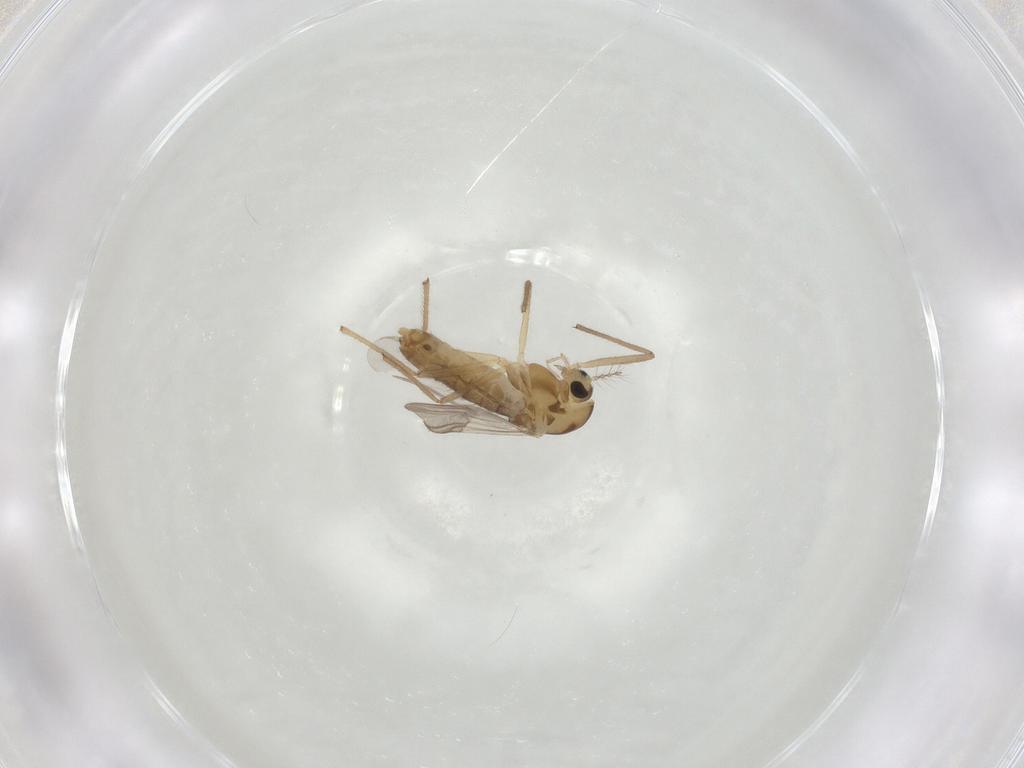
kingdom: Animalia
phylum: Arthropoda
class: Insecta
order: Diptera
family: Chironomidae
